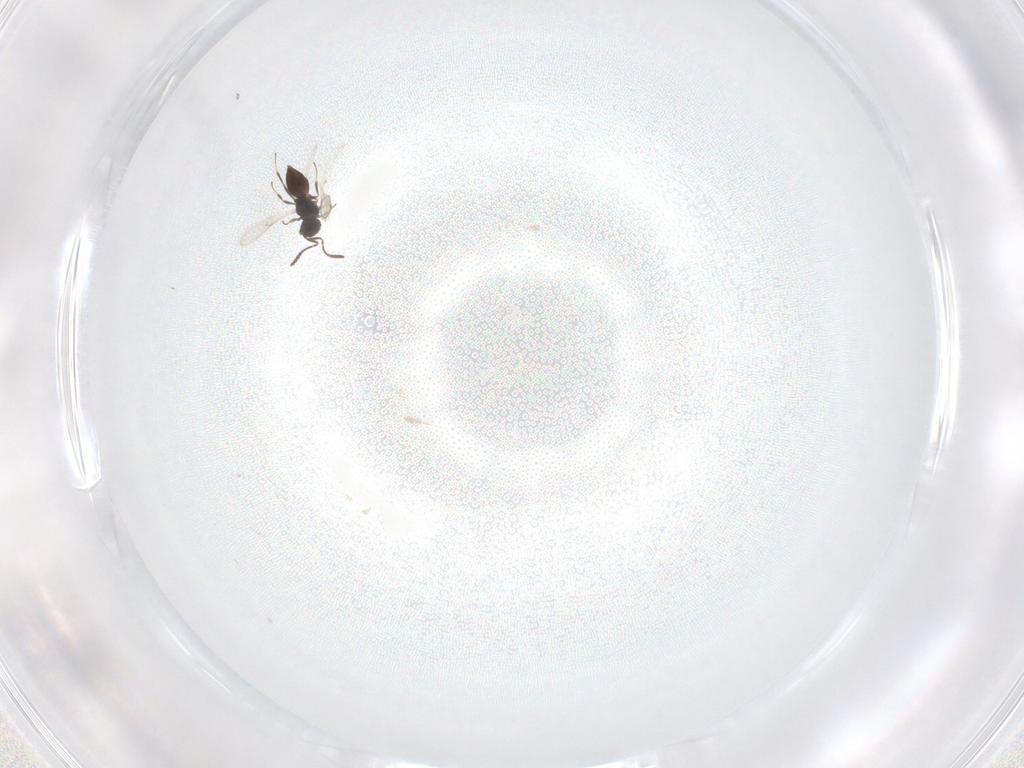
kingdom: Animalia
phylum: Arthropoda
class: Insecta
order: Hymenoptera
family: Scelionidae
